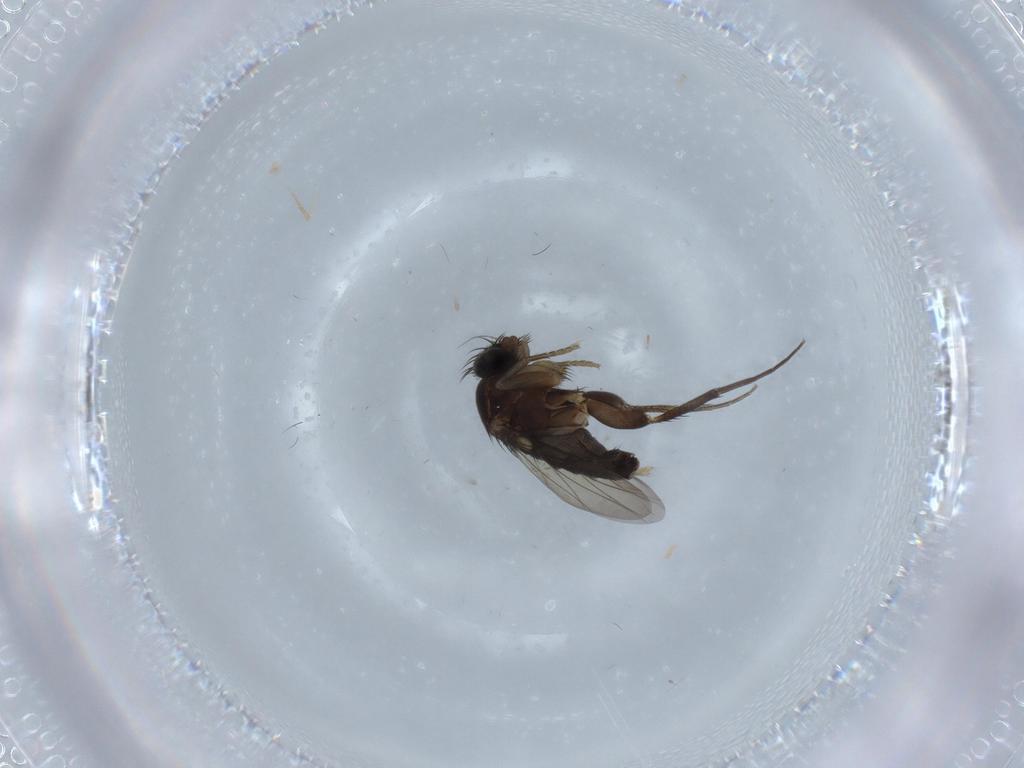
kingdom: Animalia
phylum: Arthropoda
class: Insecta
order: Diptera
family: Phoridae
